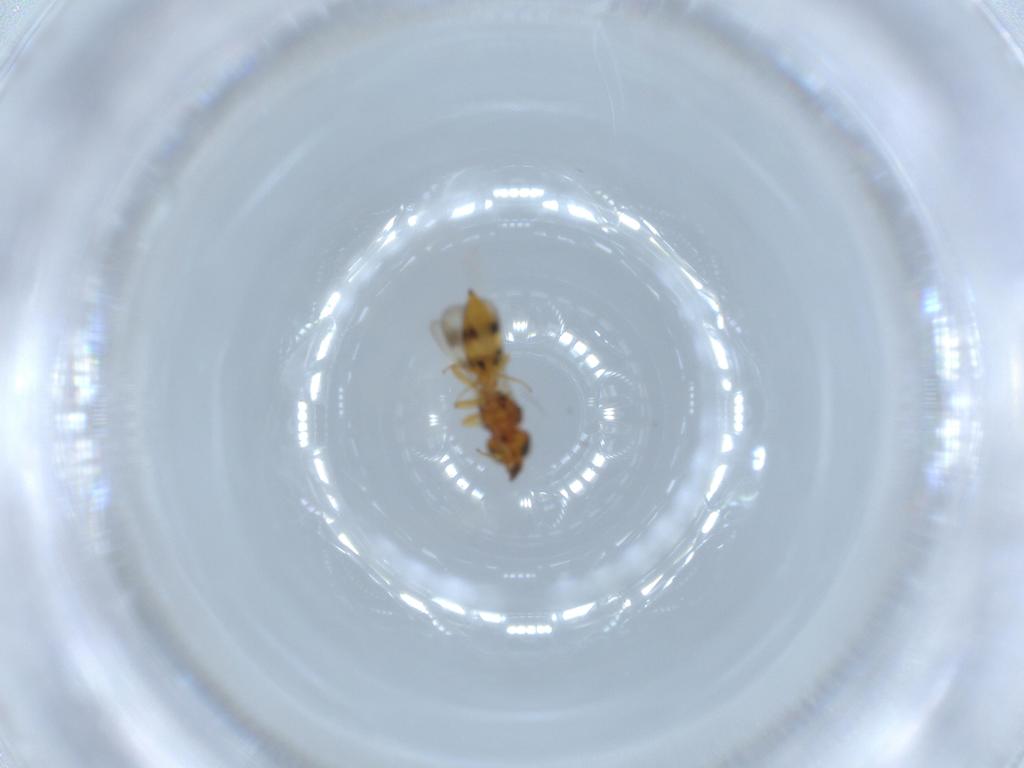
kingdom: Animalia
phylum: Arthropoda
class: Insecta
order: Hymenoptera
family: Scelionidae
